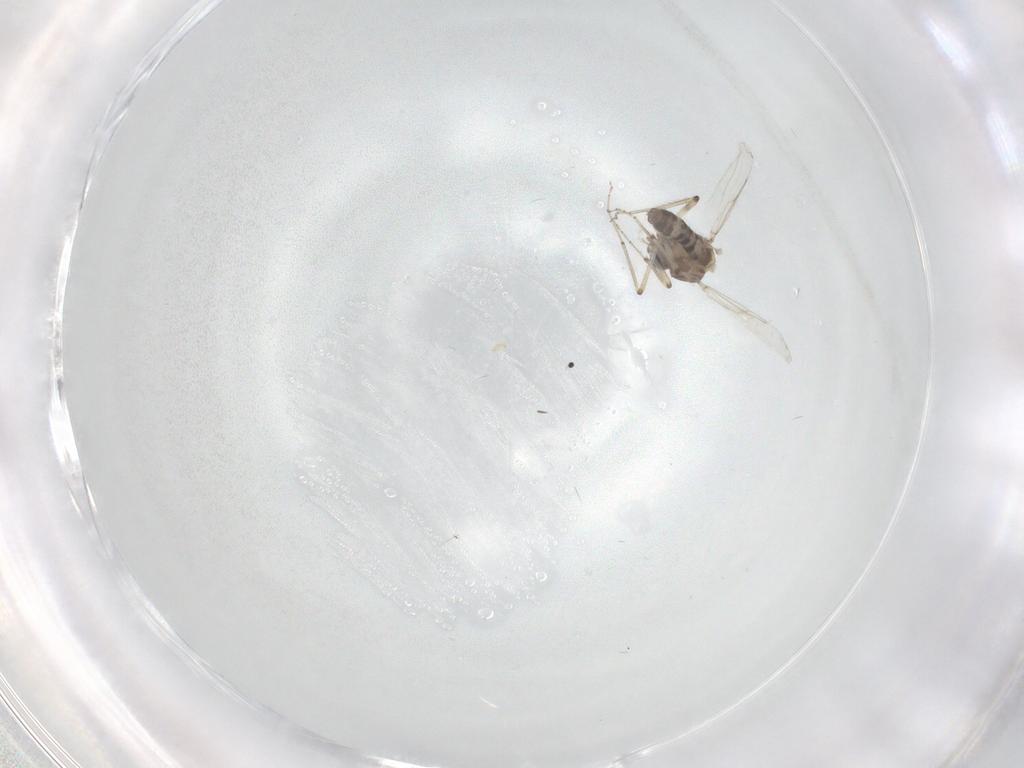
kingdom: Animalia
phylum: Arthropoda
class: Insecta
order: Diptera
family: Ceratopogonidae
